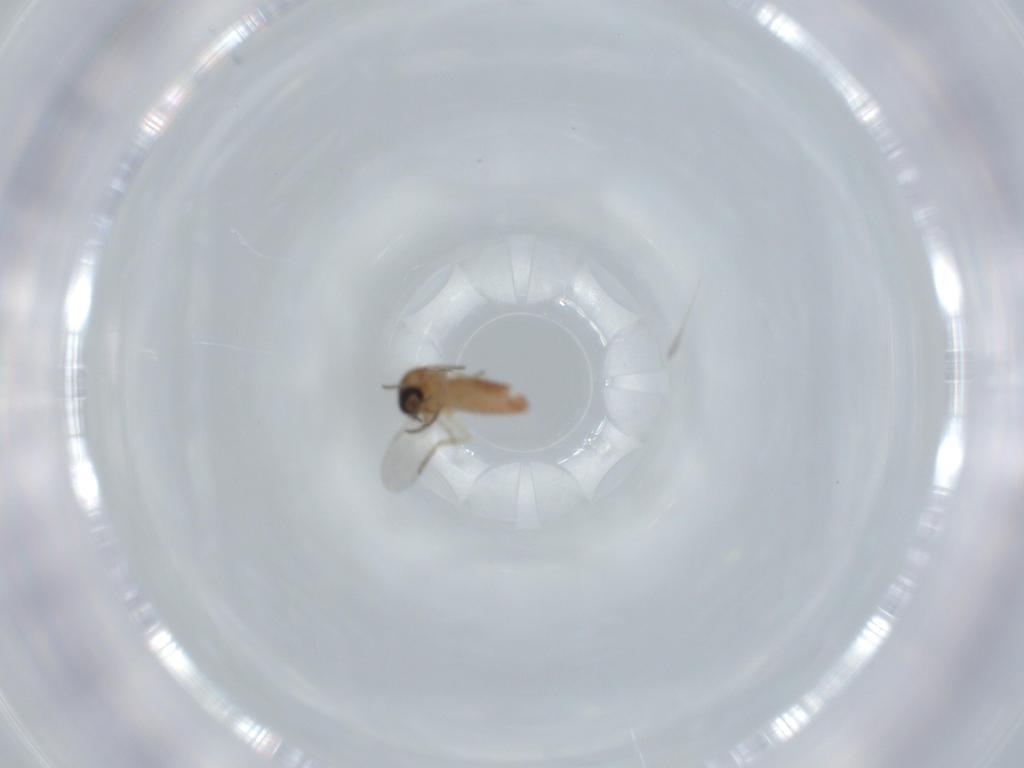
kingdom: Animalia
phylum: Arthropoda
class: Insecta
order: Diptera
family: Ceratopogonidae
